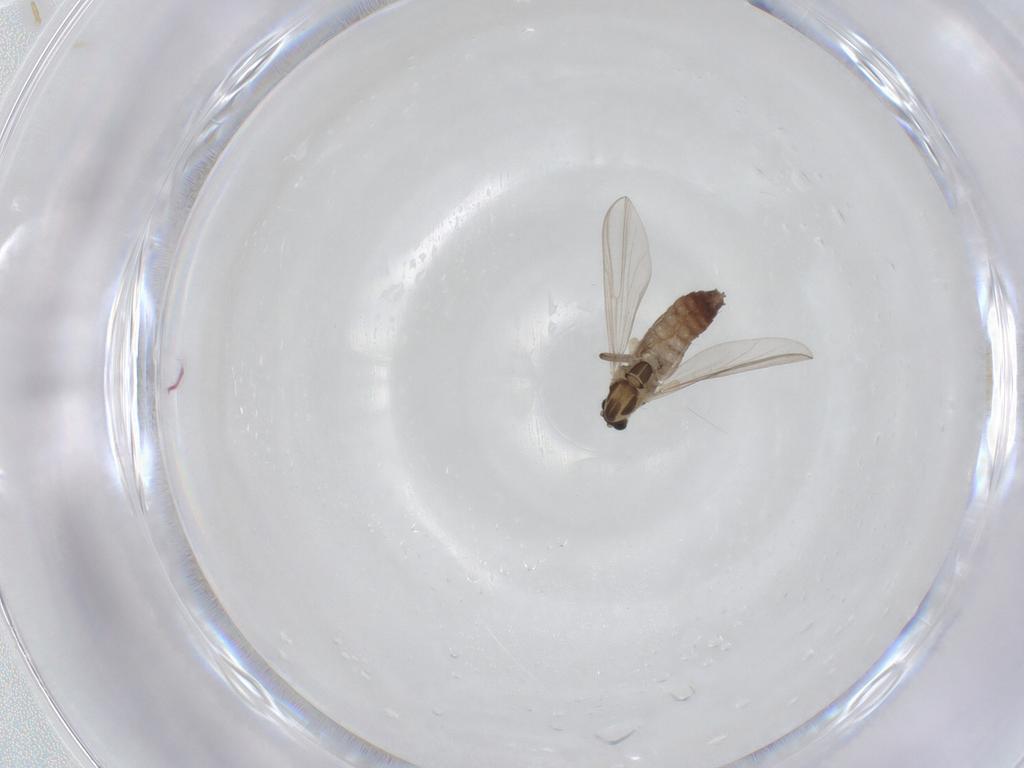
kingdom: Animalia
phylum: Arthropoda
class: Insecta
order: Diptera
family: Chironomidae
